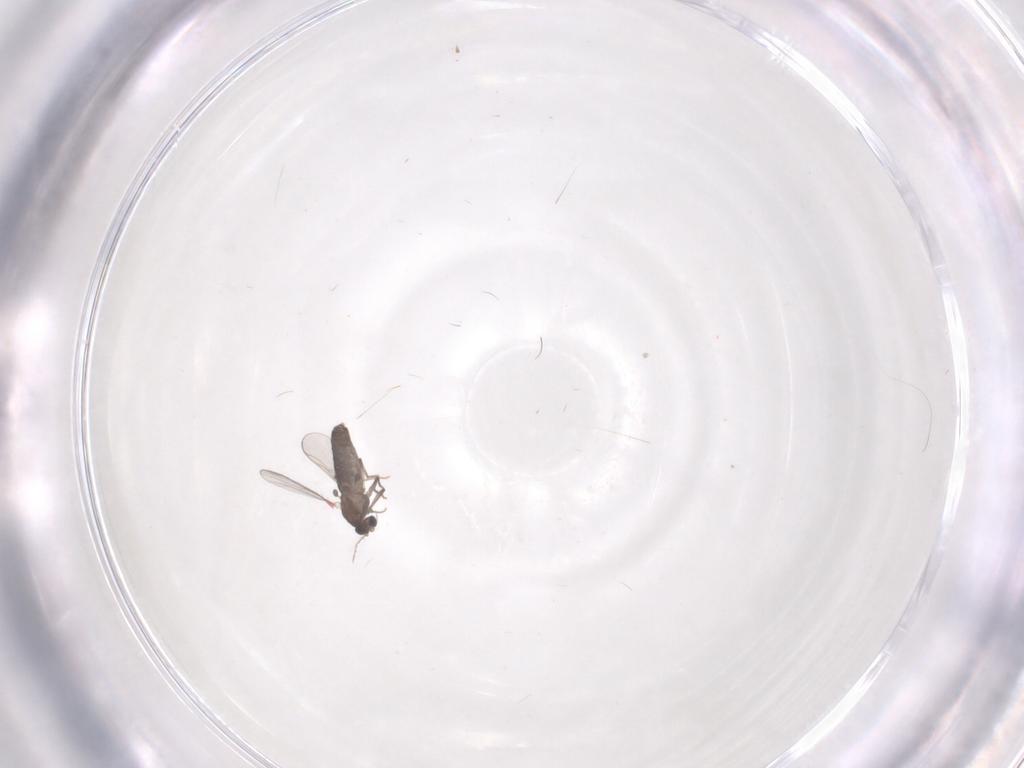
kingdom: Animalia
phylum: Arthropoda
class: Insecta
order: Diptera
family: Chironomidae
